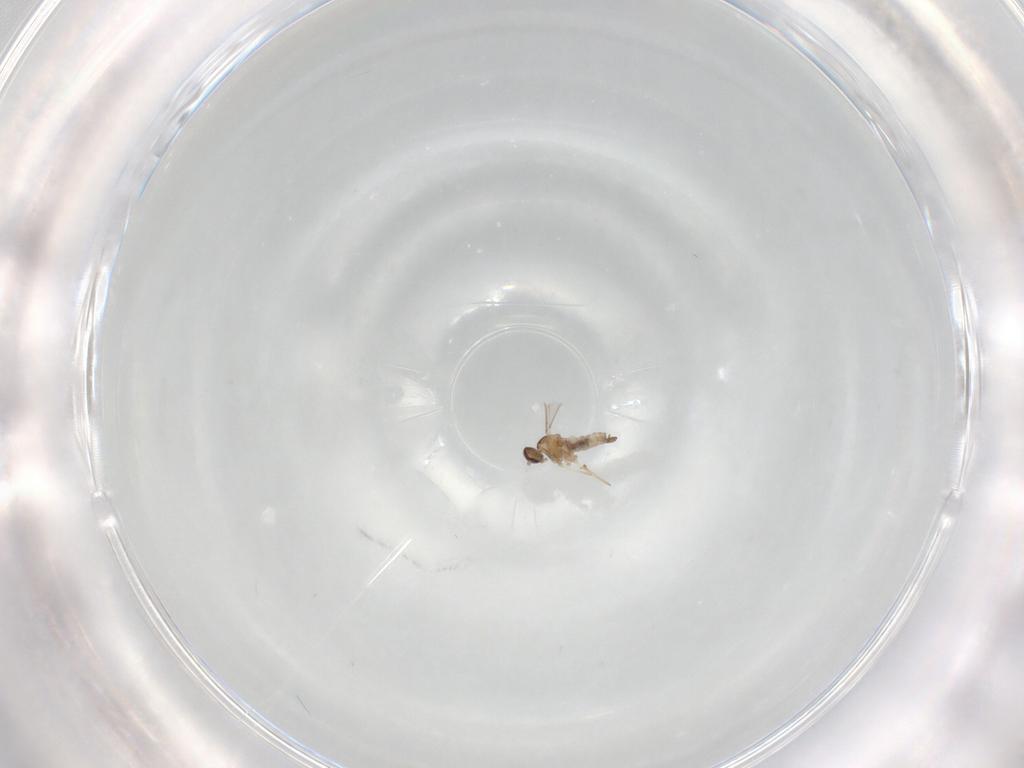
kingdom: Animalia
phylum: Arthropoda
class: Insecta
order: Diptera
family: Cecidomyiidae
